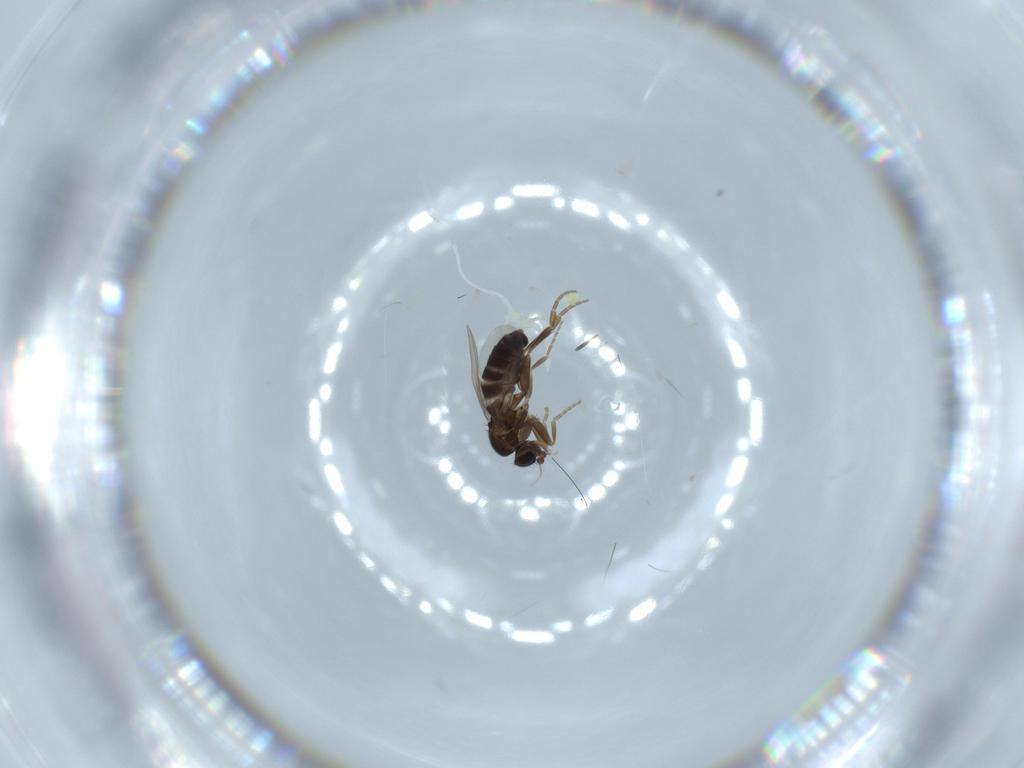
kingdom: Animalia
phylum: Arthropoda
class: Insecta
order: Diptera
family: Phoridae
